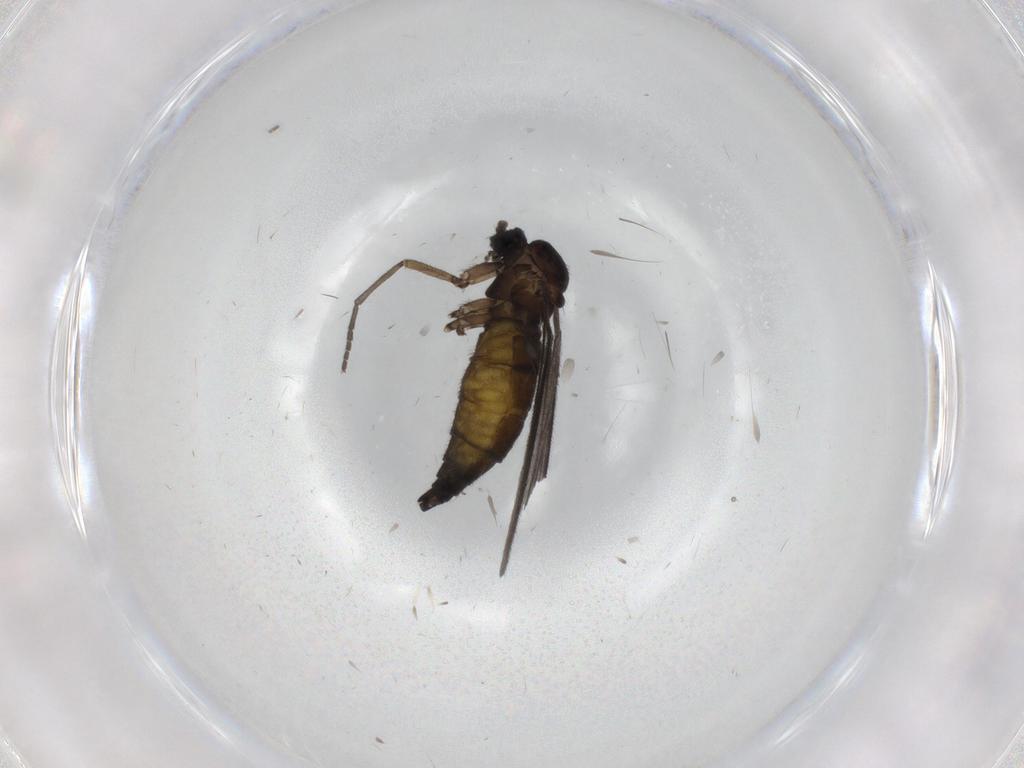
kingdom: Animalia
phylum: Arthropoda
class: Insecta
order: Diptera
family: Sciaridae
